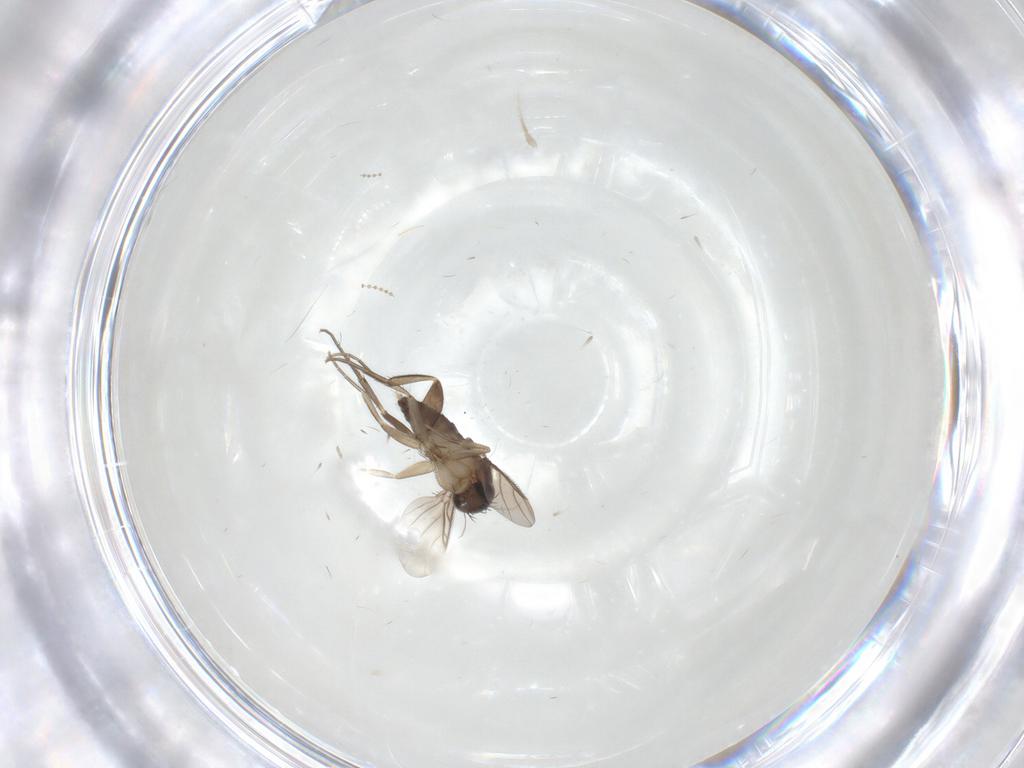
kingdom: Animalia
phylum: Arthropoda
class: Insecta
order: Diptera
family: Phoridae
